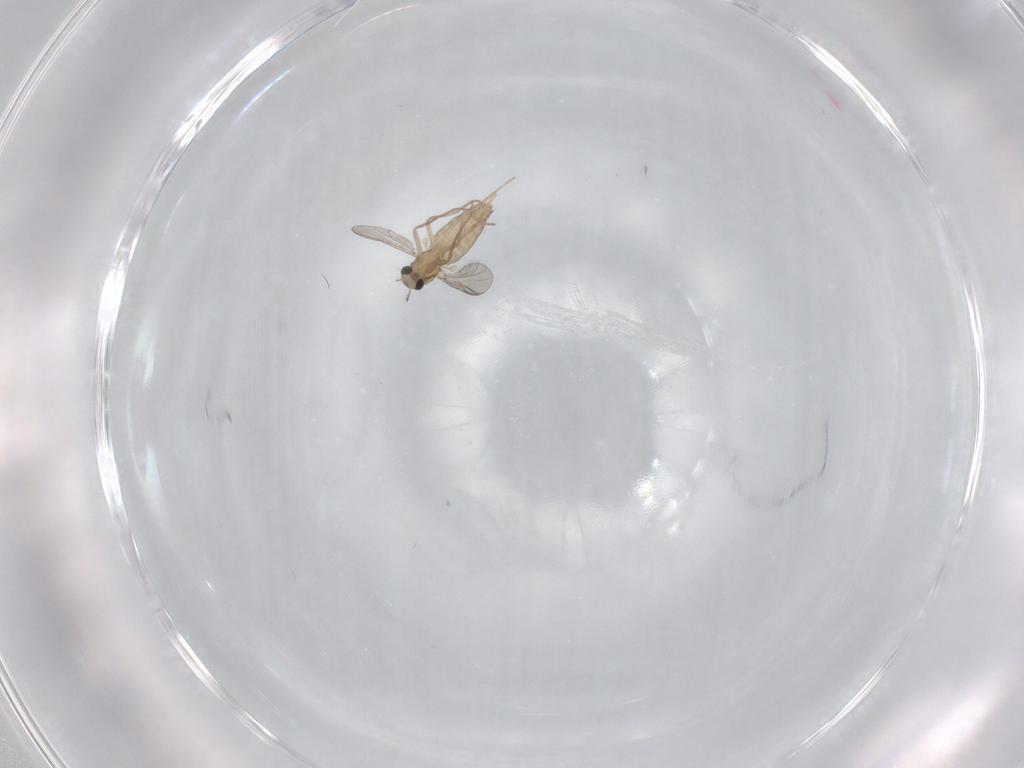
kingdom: Animalia
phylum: Arthropoda
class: Insecta
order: Diptera
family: Chironomidae
